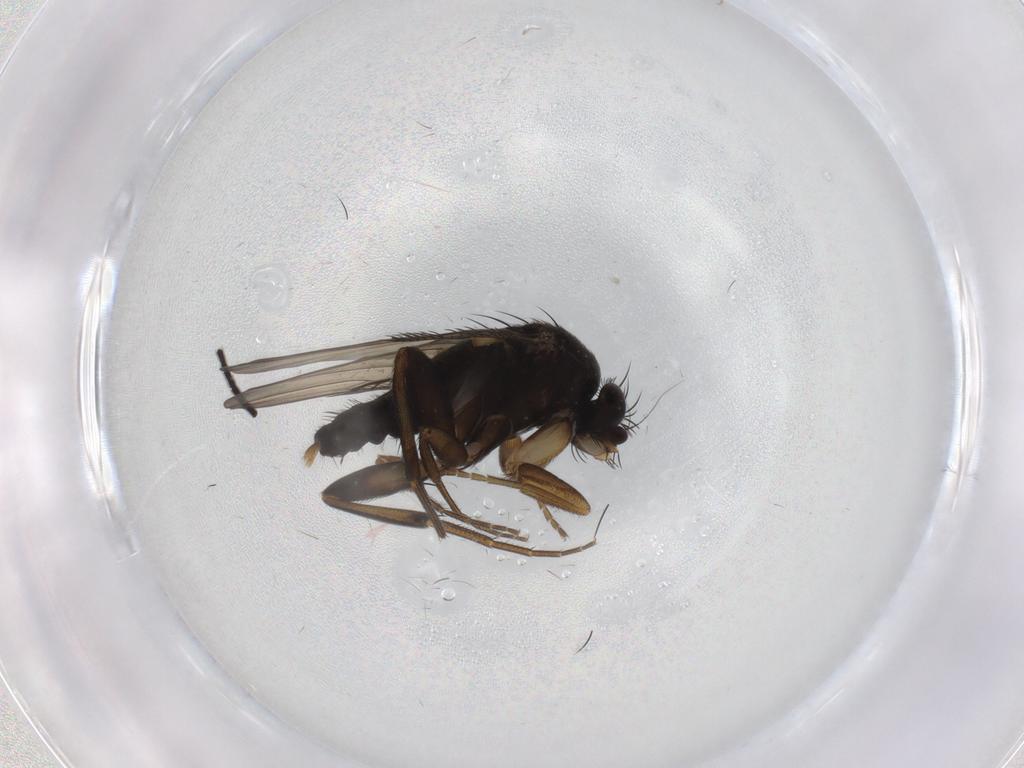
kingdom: Animalia
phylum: Arthropoda
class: Insecta
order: Diptera
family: Phoridae
